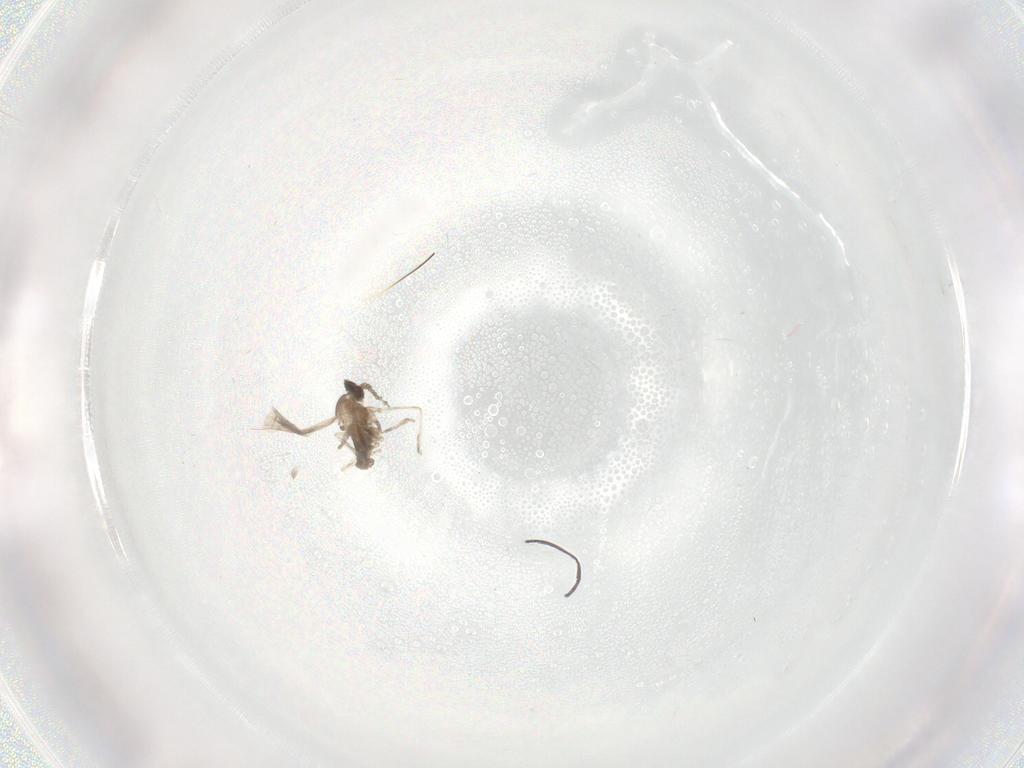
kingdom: Animalia
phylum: Arthropoda
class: Insecta
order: Diptera
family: Cecidomyiidae
